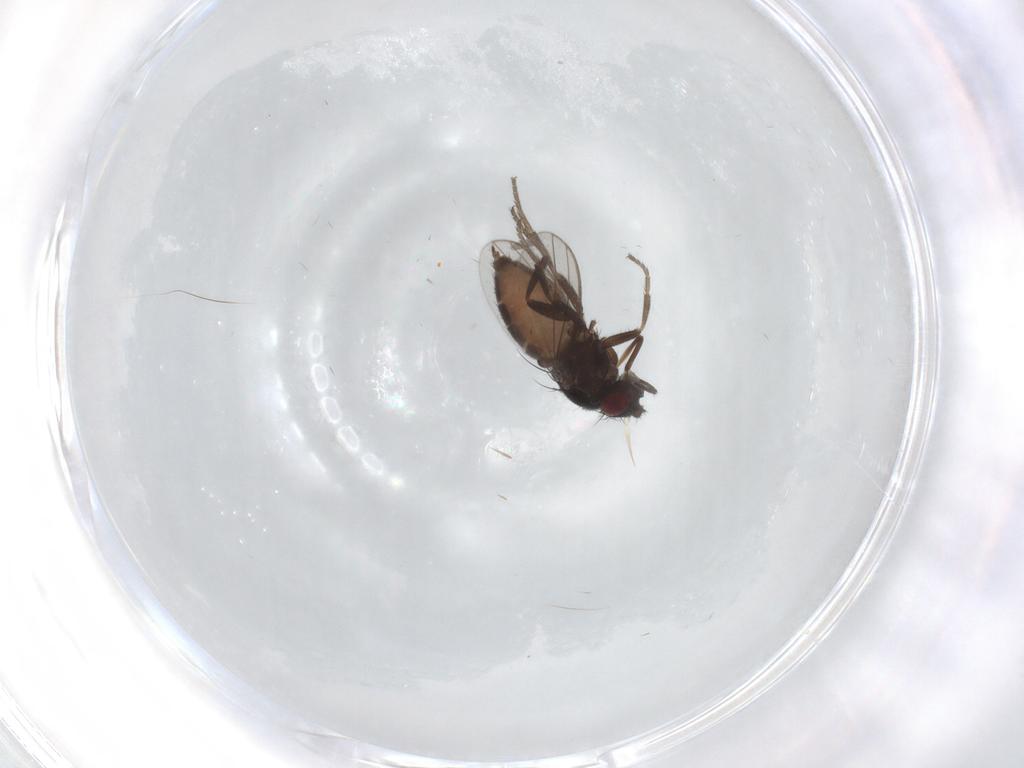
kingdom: Animalia
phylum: Arthropoda
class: Insecta
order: Diptera
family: Milichiidae
